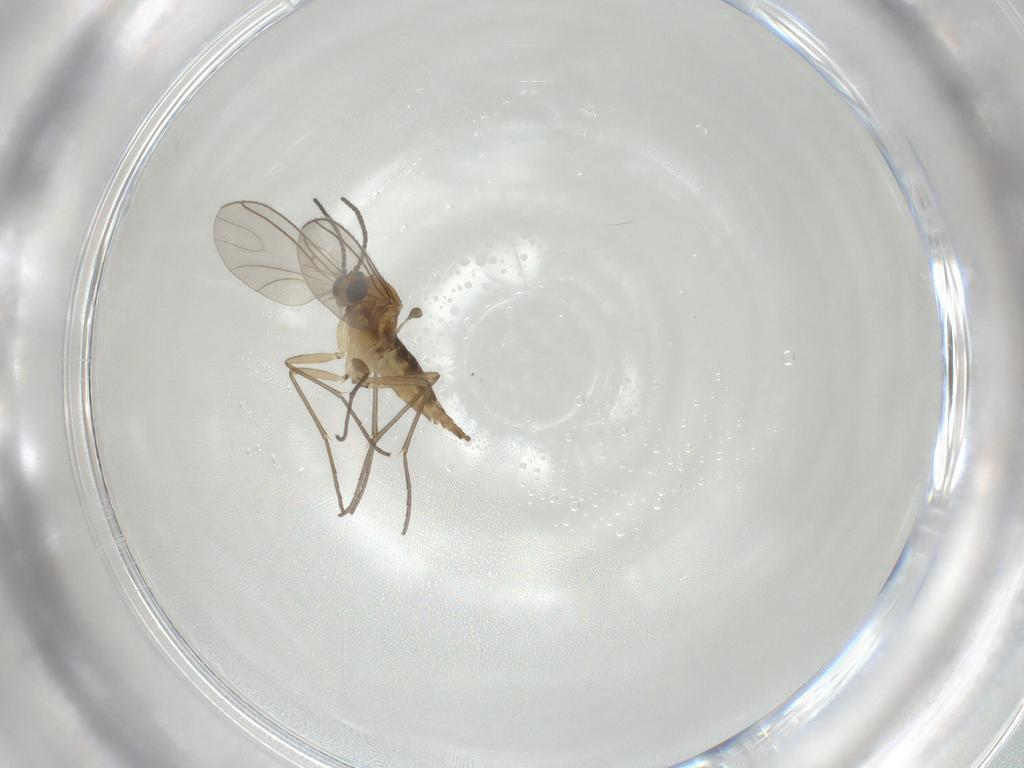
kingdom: Animalia
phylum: Arthropoda
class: Insecta
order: Diptera
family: Sciaridae
